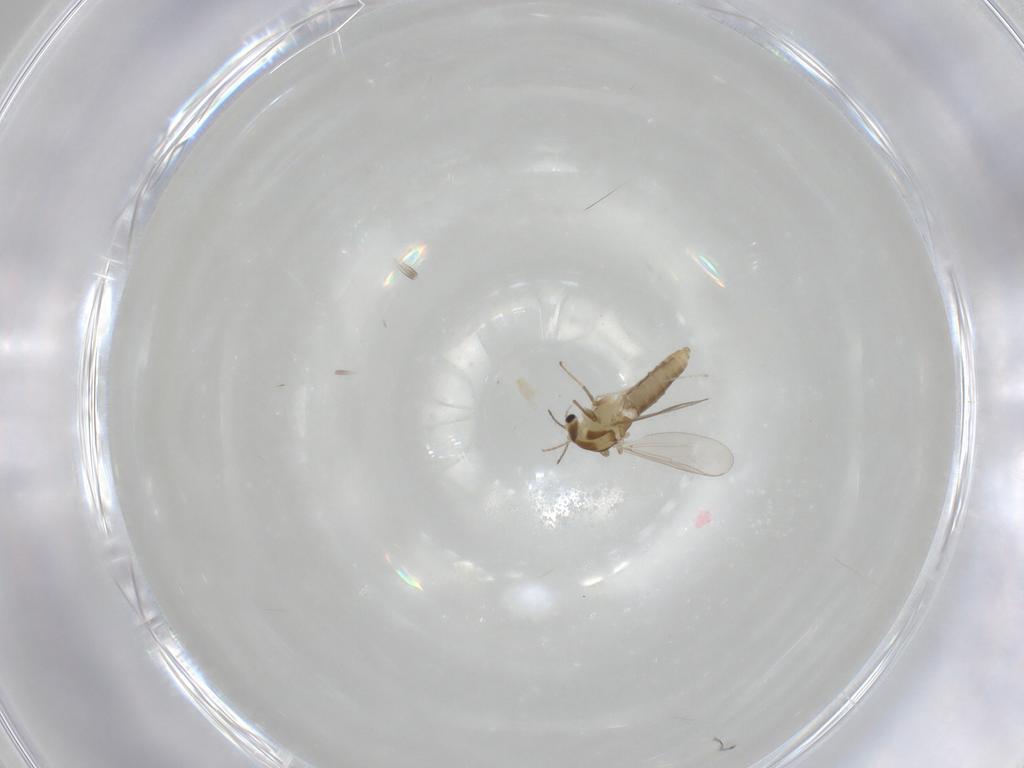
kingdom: Animalia
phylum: Arthropoda
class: Insecta
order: Diptera
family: Chironomidae
